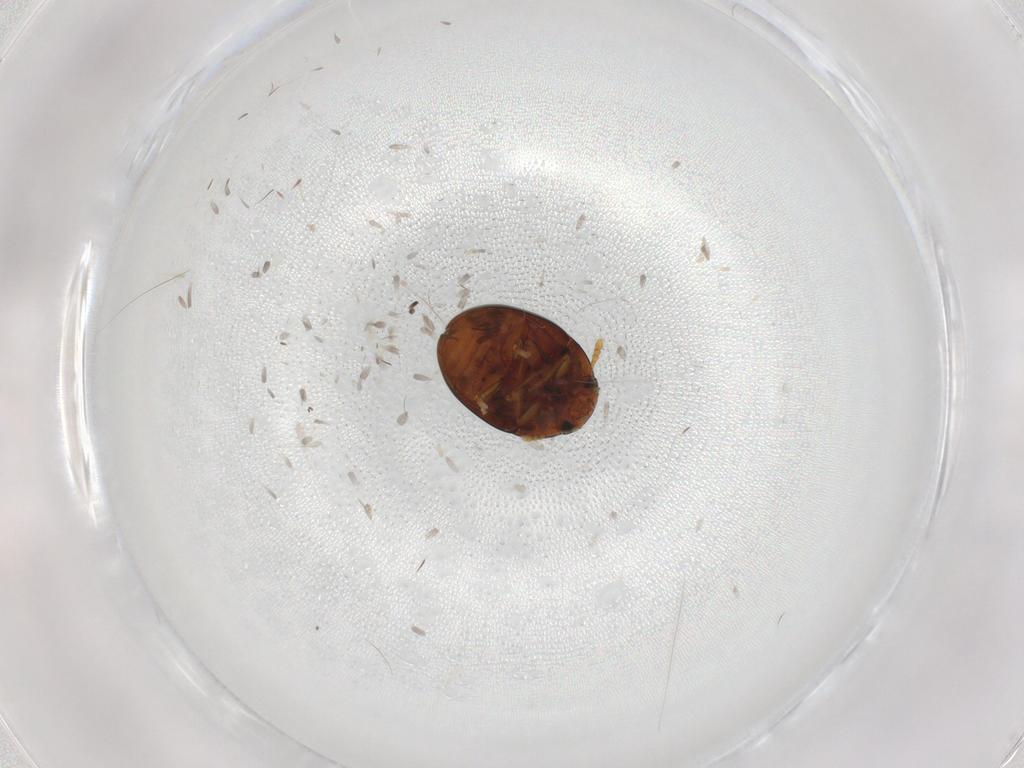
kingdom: Animalia
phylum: Arthropoda
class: Insecta
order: Coleoptera
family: Phalacridae
